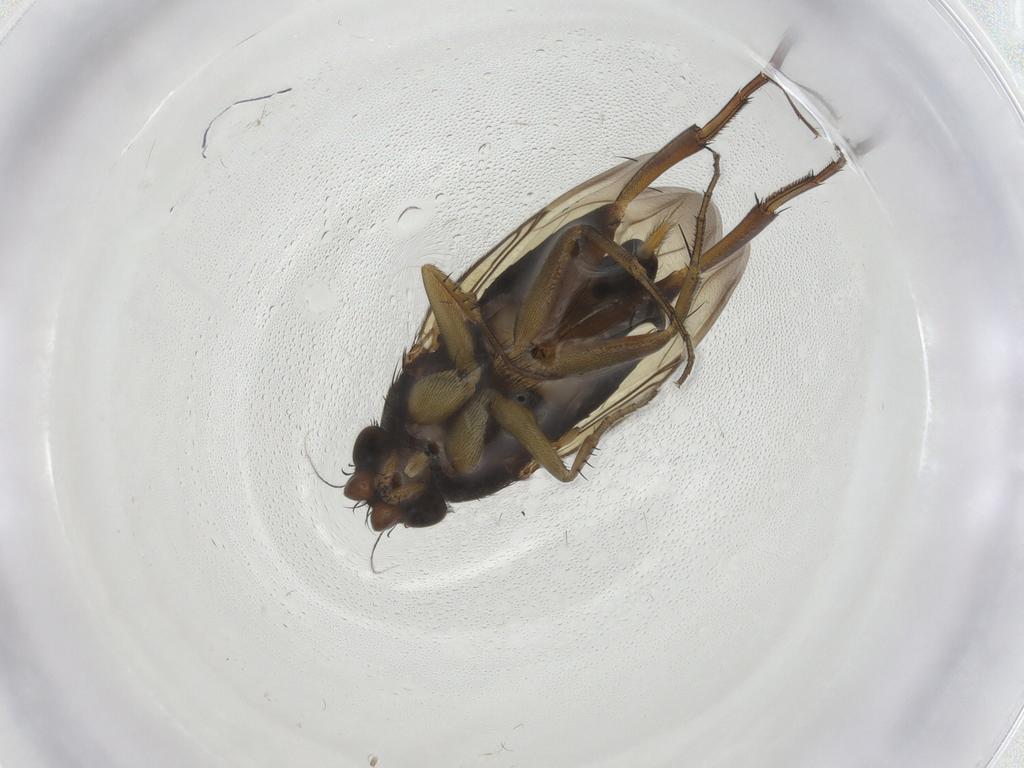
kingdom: Animalia
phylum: Arthropoda
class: Insecta
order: Diptera
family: Phoridae
